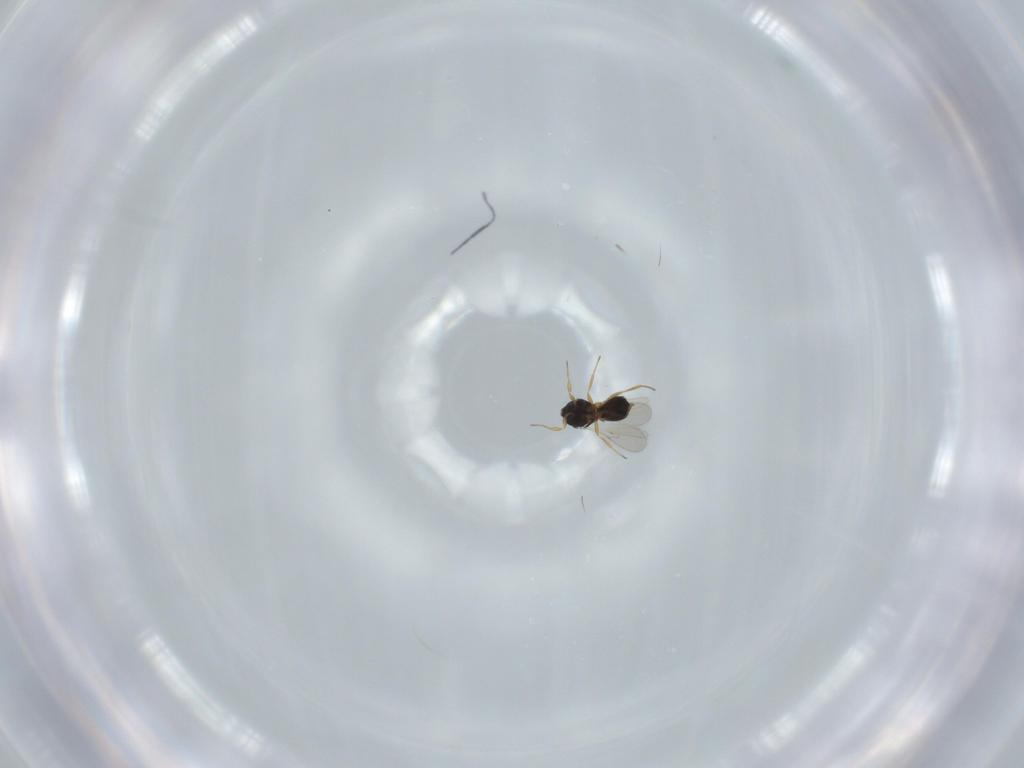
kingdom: Animalia
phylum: Arthropoda
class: Insecta
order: Hymenoptera
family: Scelionidae
